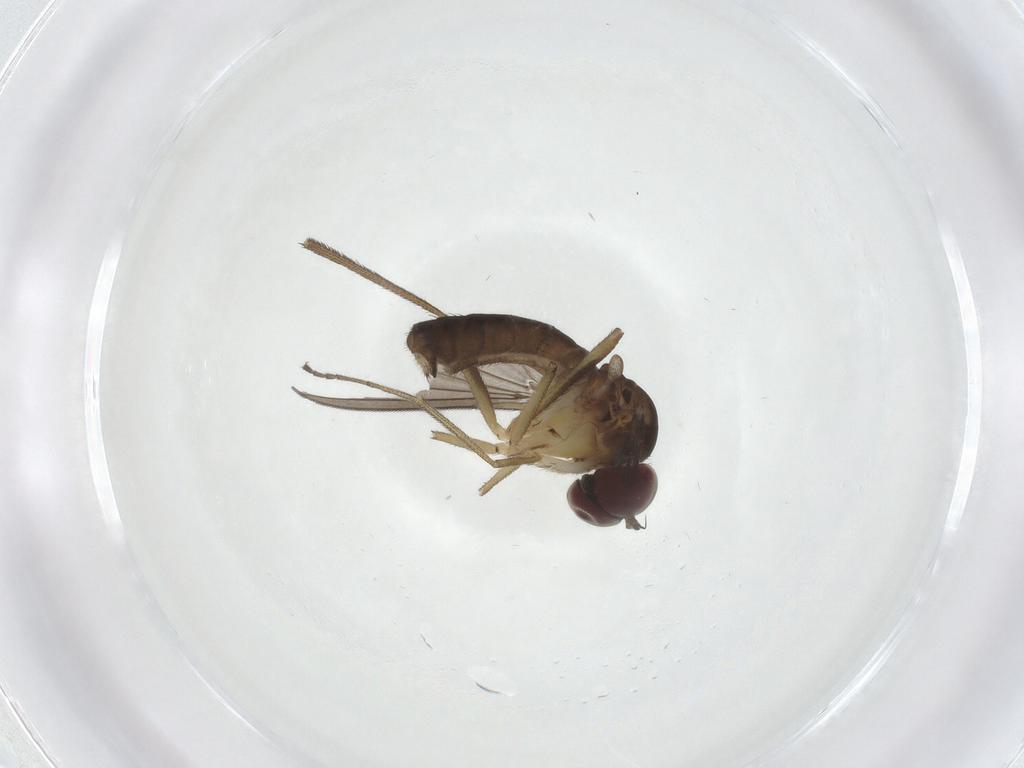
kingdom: Animalia
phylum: Arthropoda
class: Insecta
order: Diptera
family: Dolichopodidae
